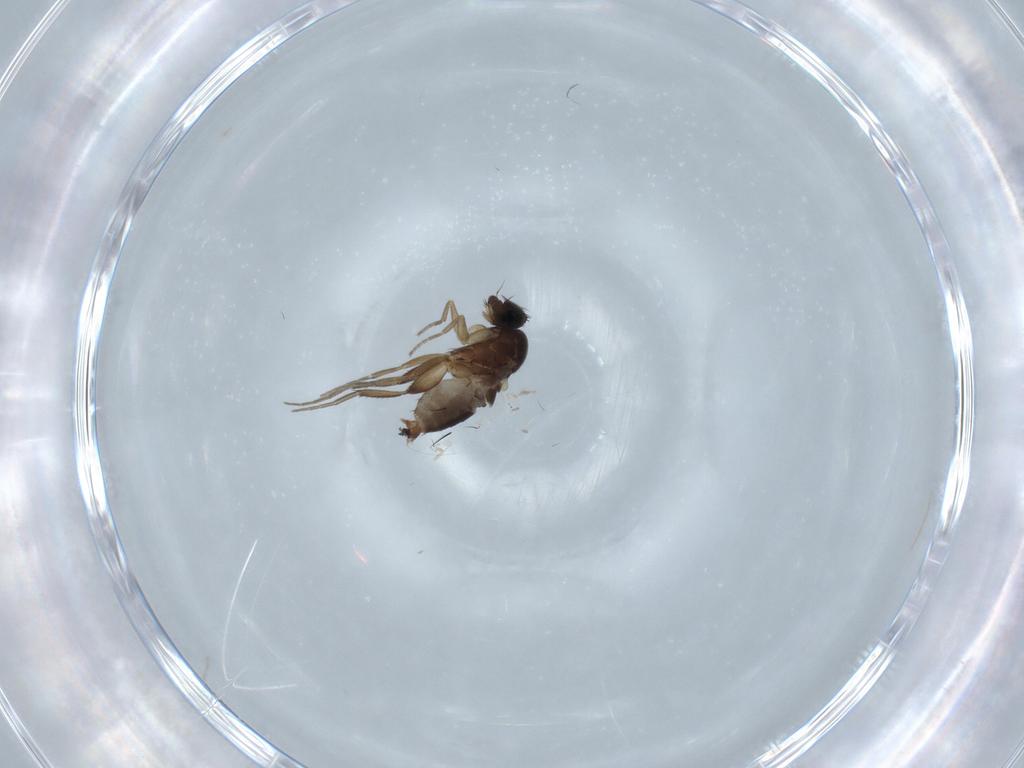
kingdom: Animalia
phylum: Arthropoda
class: Insecta
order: Diptera
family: Phoridae
